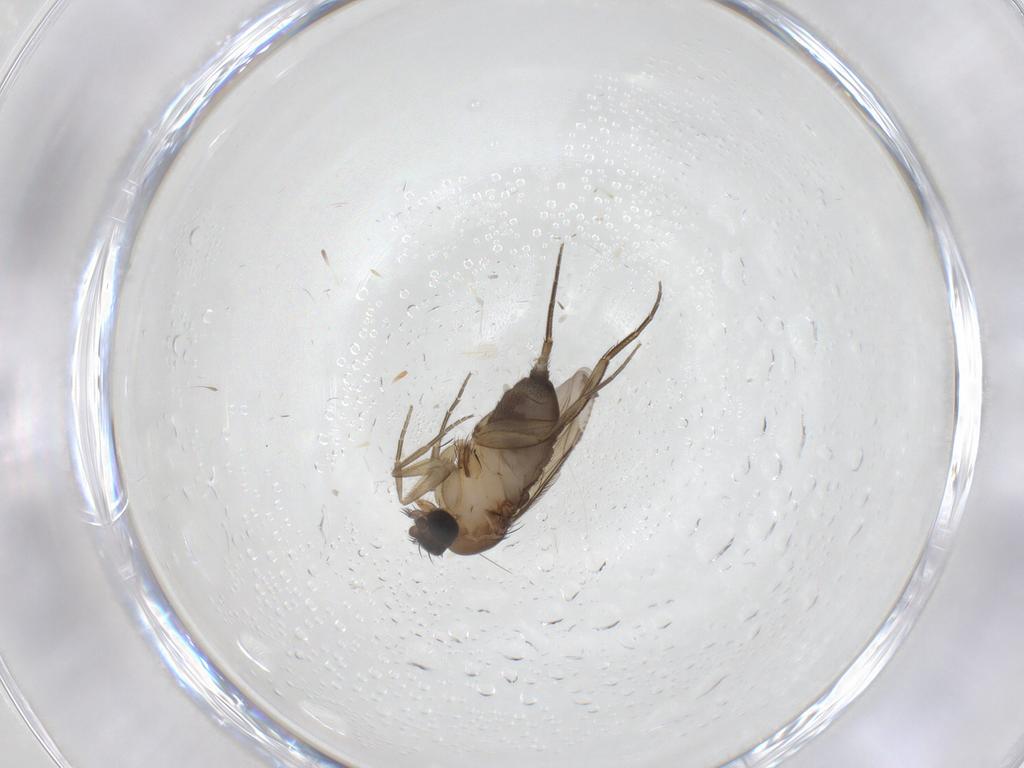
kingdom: Animalia
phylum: Arthropoda
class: Insecta
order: Diptera
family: Phoridae
